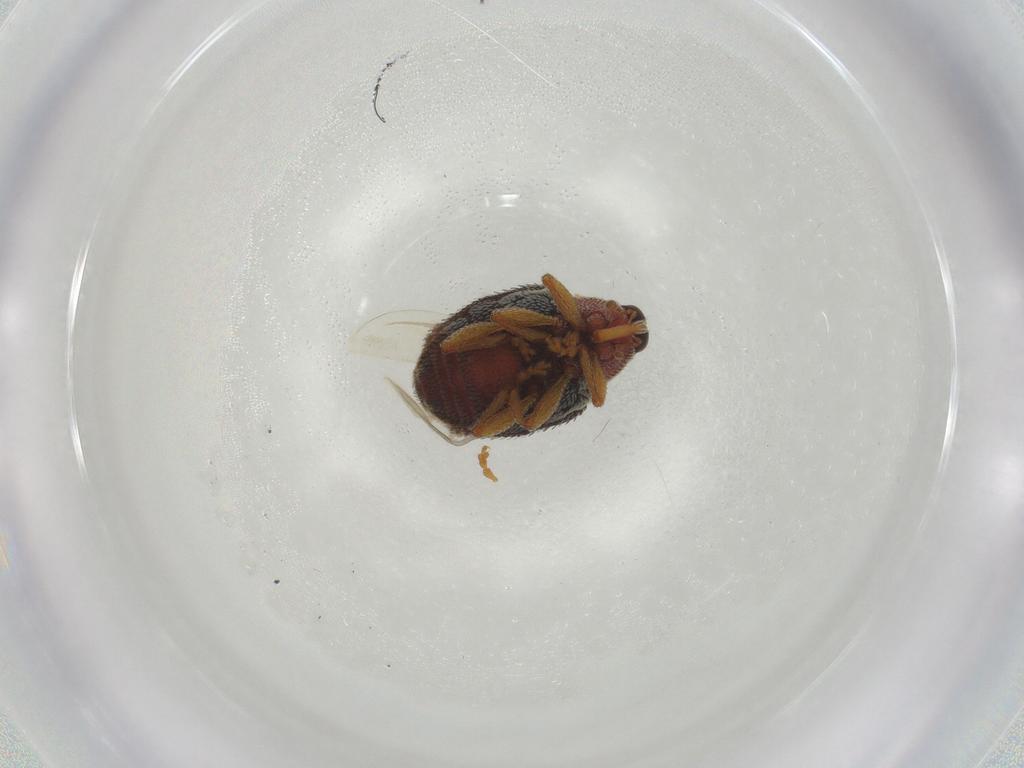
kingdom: Animalia
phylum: Arthropoda
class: Insecta
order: Coleoptera
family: Curculionidae
